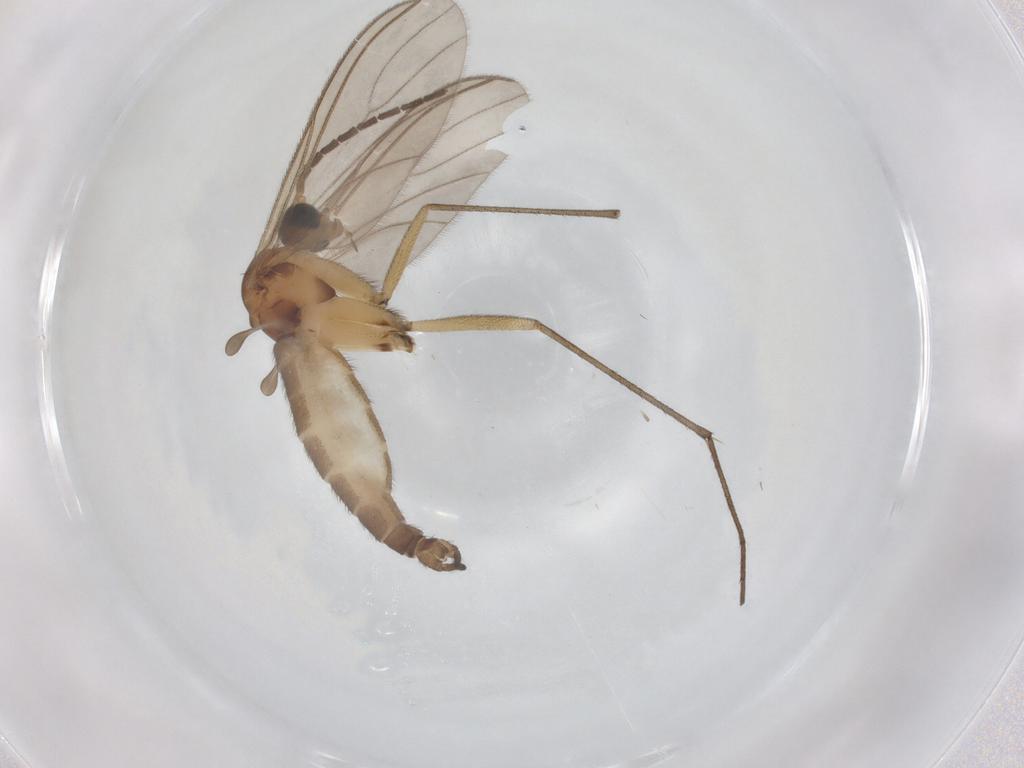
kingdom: Animalia
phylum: Arthropoda
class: Insecta
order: Diptera
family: Sciaridae
